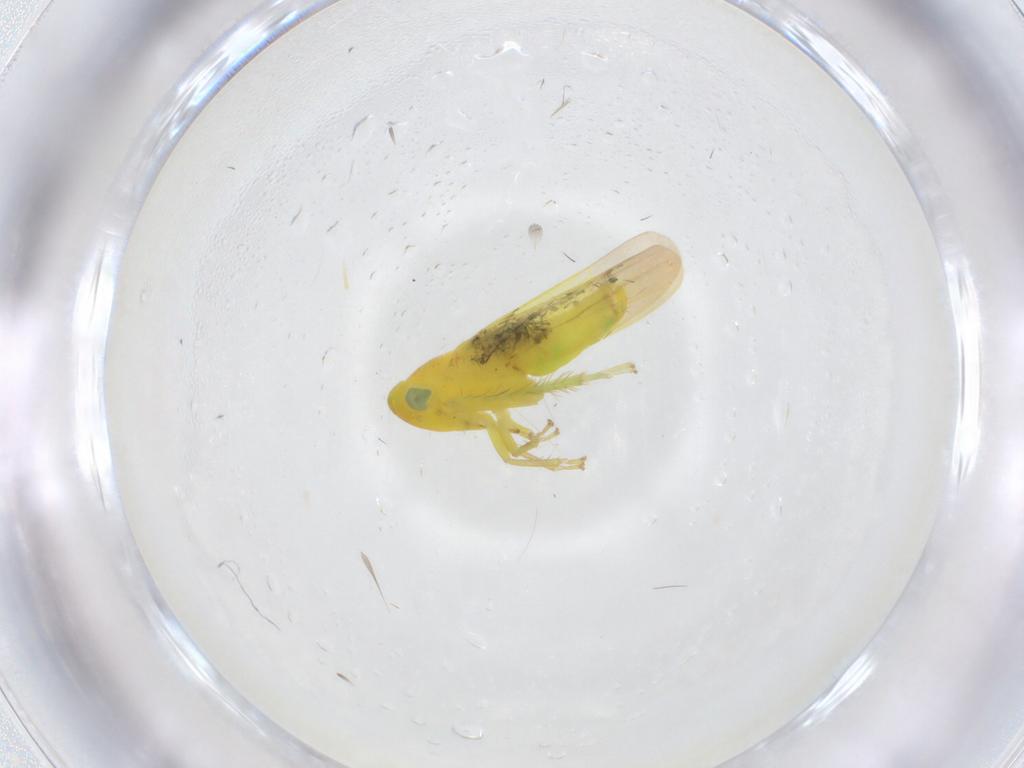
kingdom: Animalia
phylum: Arthropoda
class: Insecta
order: Hemiptera
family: Cicadellidae
